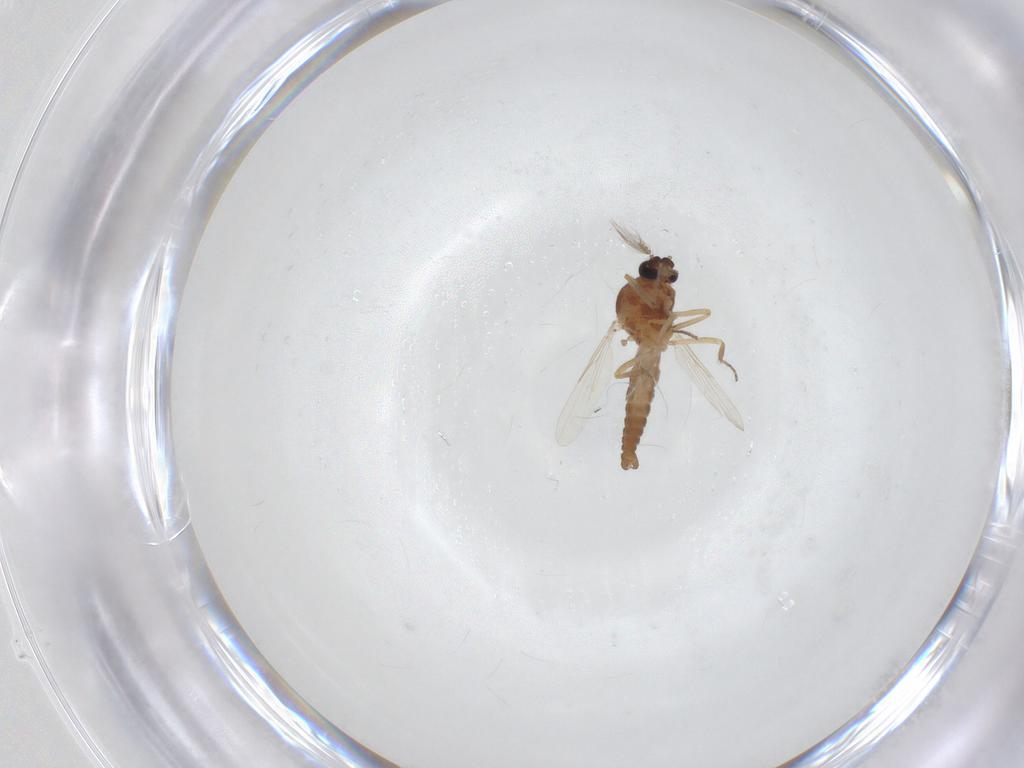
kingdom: Animalia
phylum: Arthropoda
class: Insecta
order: Diptera
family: Ceratopogonidae
